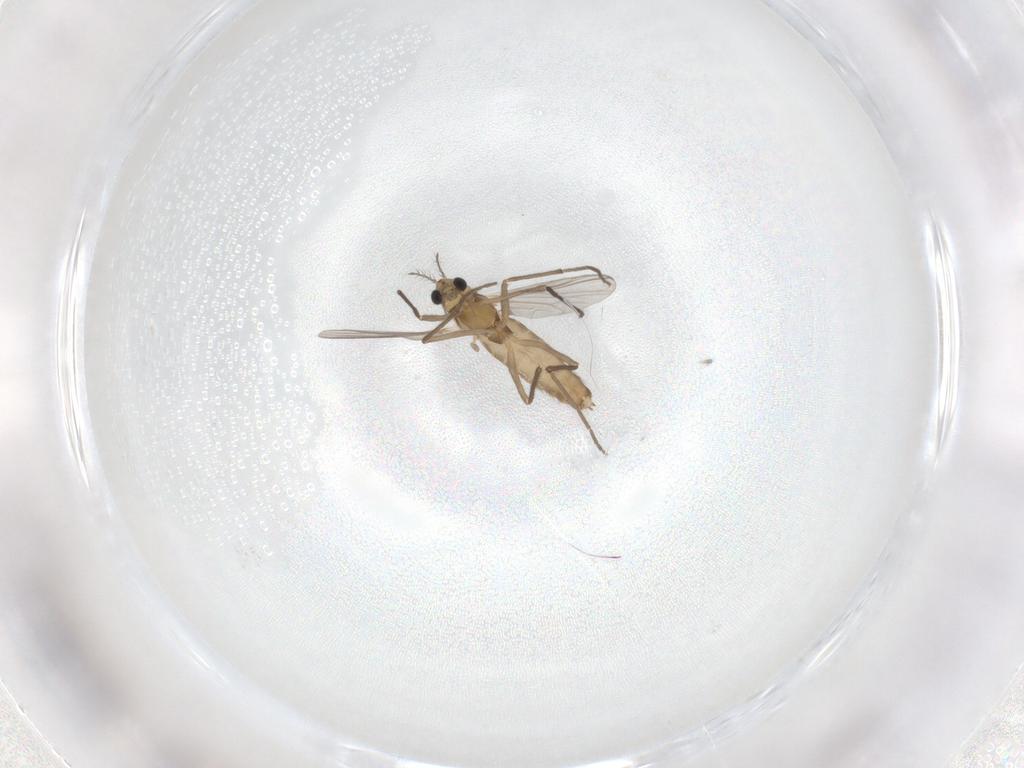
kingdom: Animalia
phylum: Arthropoda
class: Insecta
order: Diptera
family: Chironomidae
